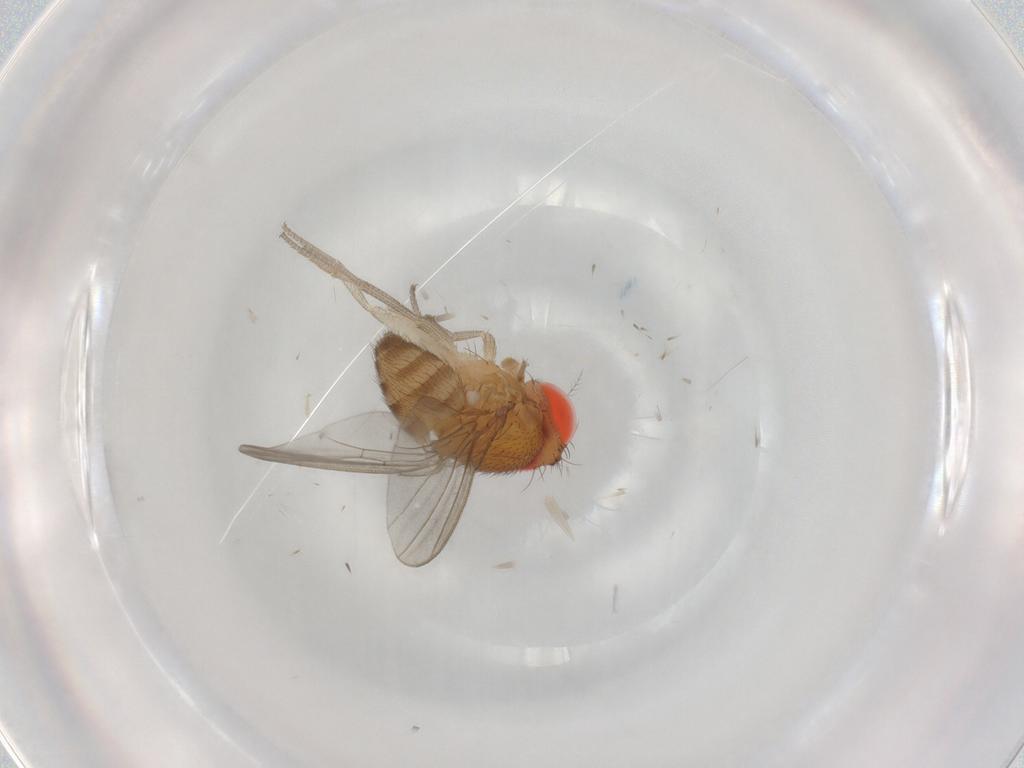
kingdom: Animalia
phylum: Arthropoda
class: Insecta
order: Diptera
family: Drosophilidae
